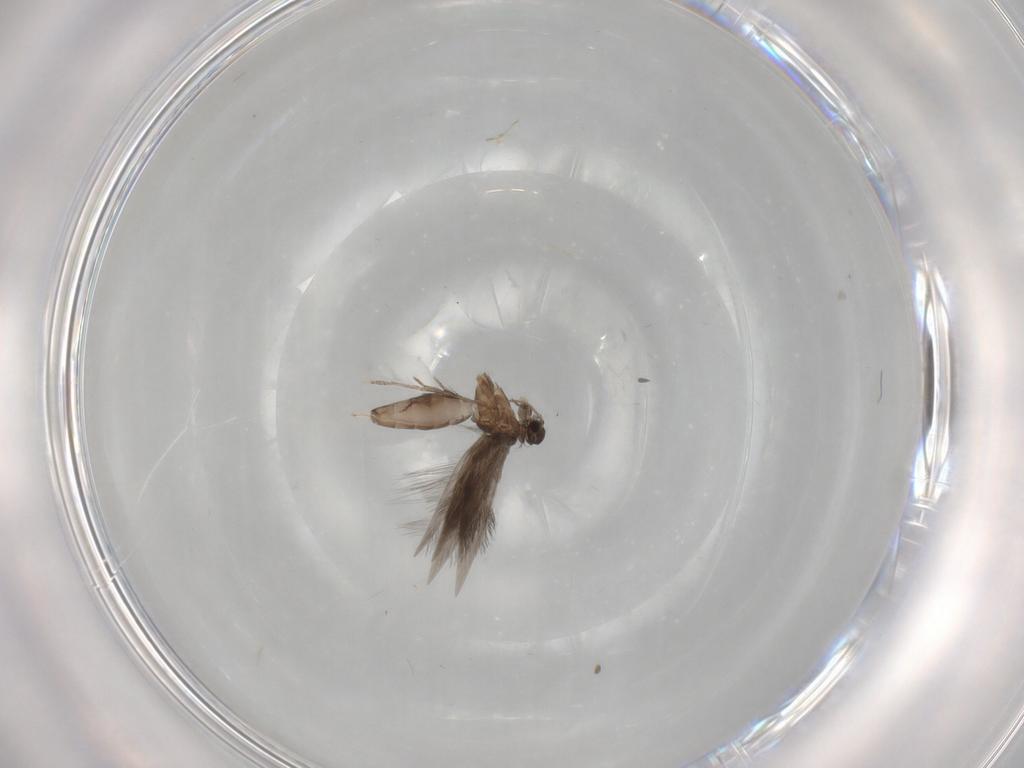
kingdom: Animalia
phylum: Arthropoda
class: Insecta
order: Trichoptera
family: Hydroptilidae
